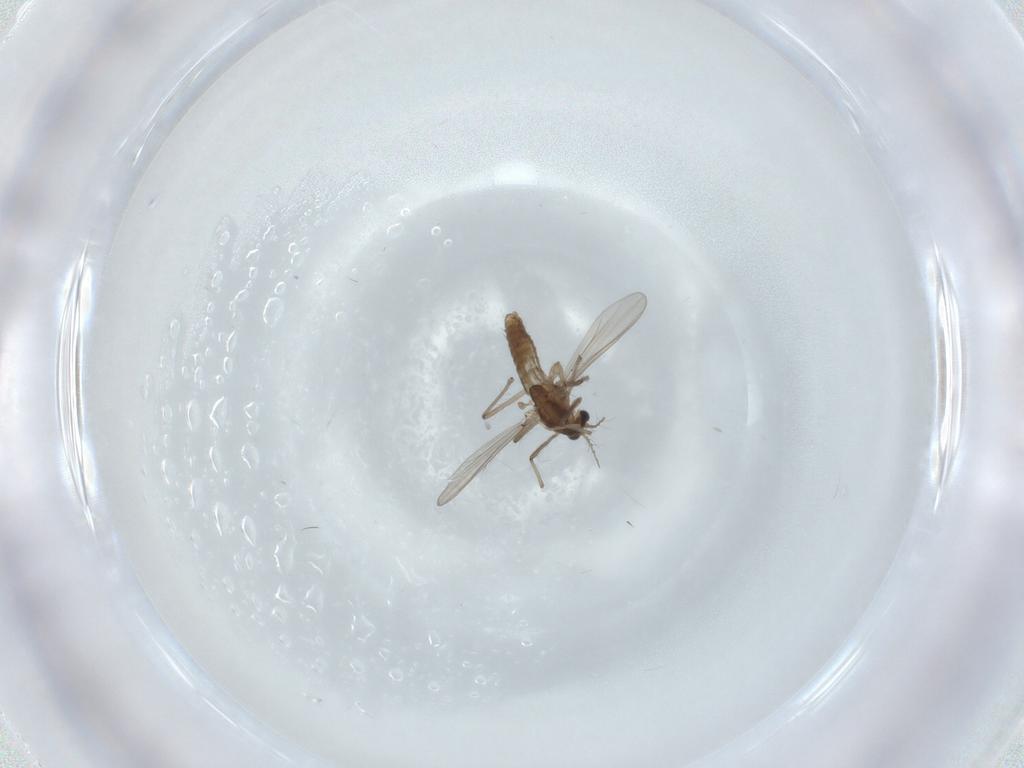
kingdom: Animalia
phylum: Arthropoda
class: Insecta
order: Diptera
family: Chironomidae
